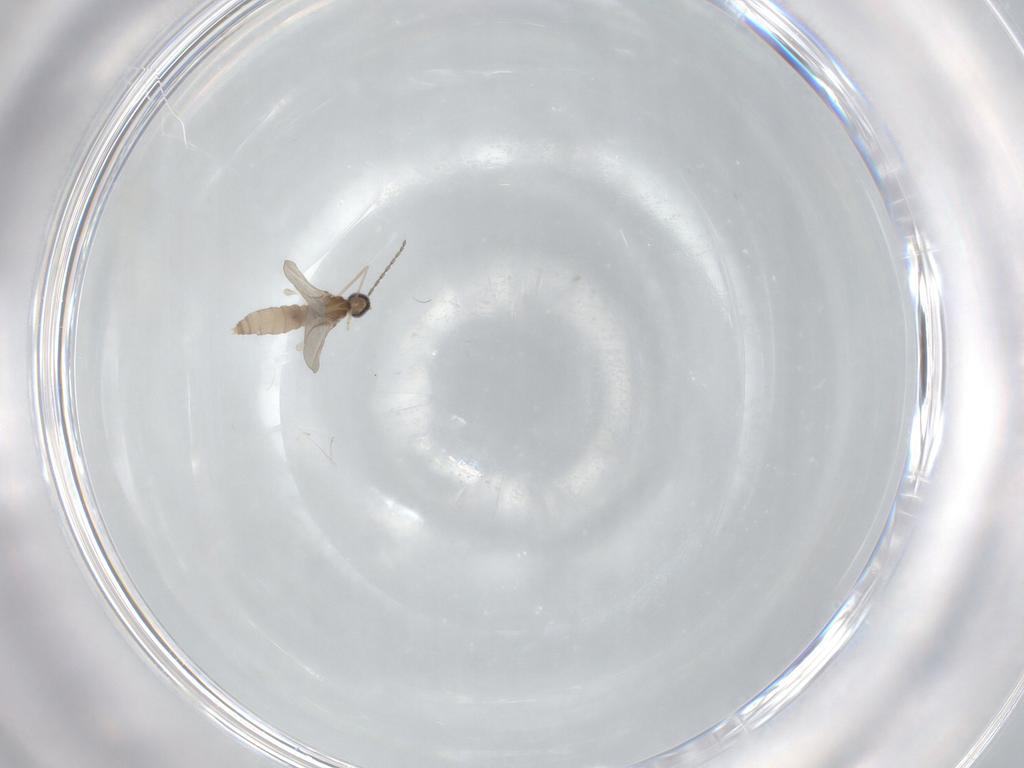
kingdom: Animalia
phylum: Arthropoda
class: Insecta
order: Diptera
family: Cecidomyiidae
